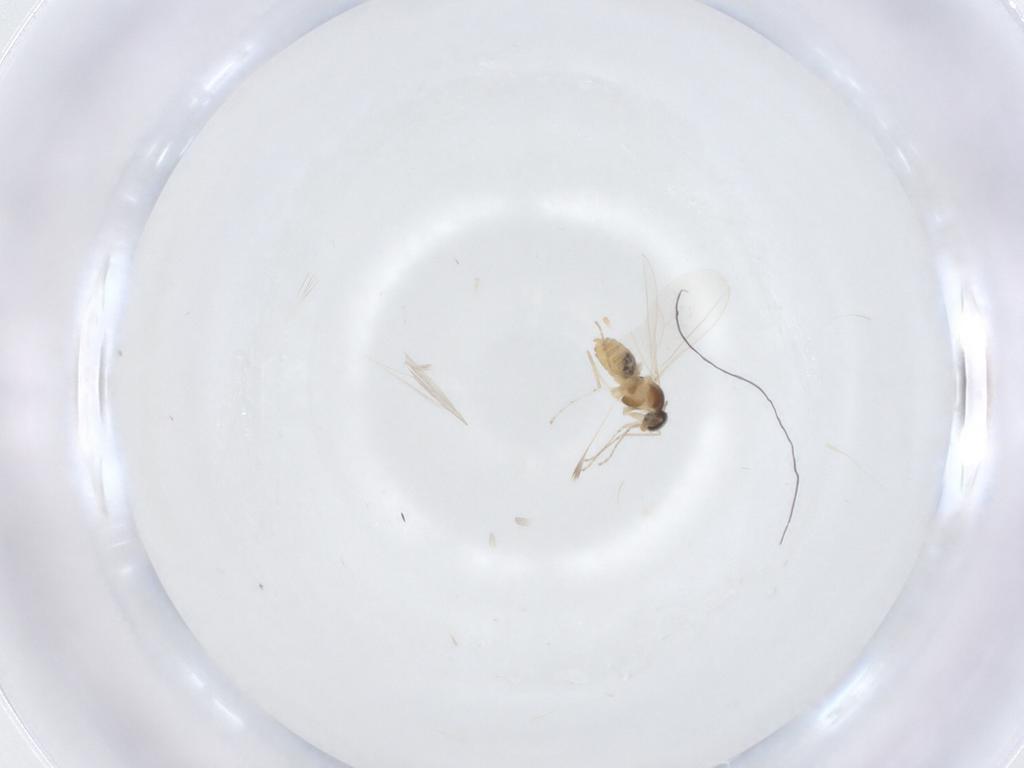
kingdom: Animalia
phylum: Arthropoda
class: Insecta
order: Diptera
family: Cecidomyiidae
